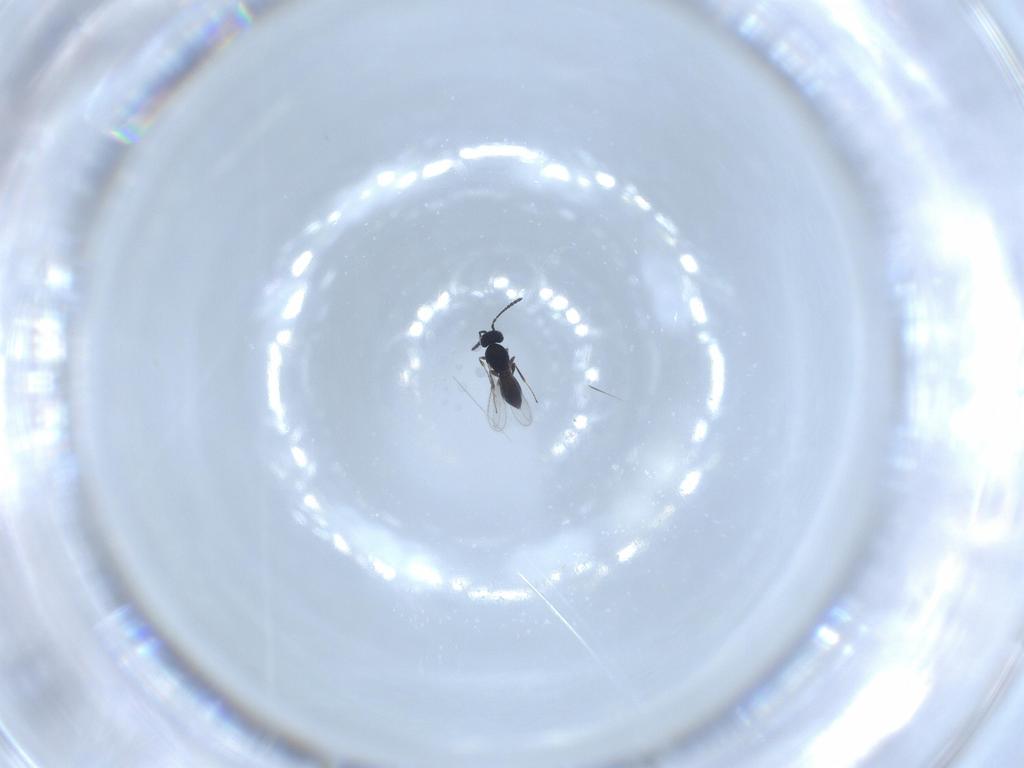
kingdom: Animalia
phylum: Arthropoda
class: Insecta
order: Hymenoptera
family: Scelionidae
